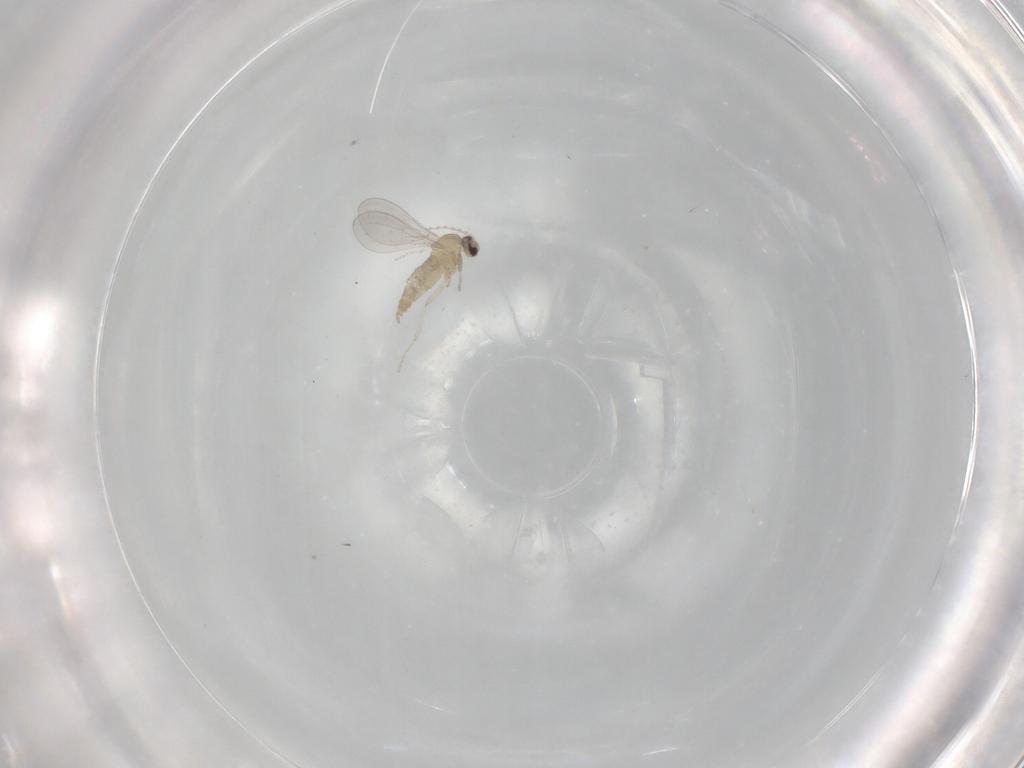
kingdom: Animalia
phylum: Arthropoda
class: Insecta
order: Diptera
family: Cecidomyiidae
